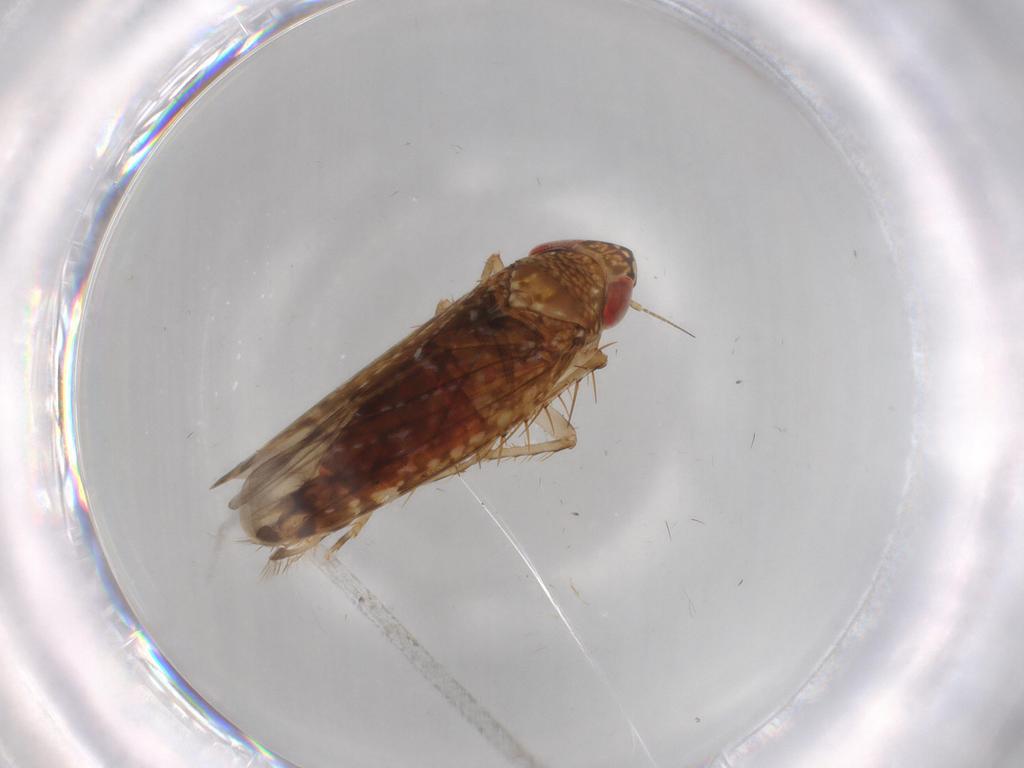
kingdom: Animalia
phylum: Arthropoda
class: Insecta
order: Hemiptera
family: Cicadellidae
